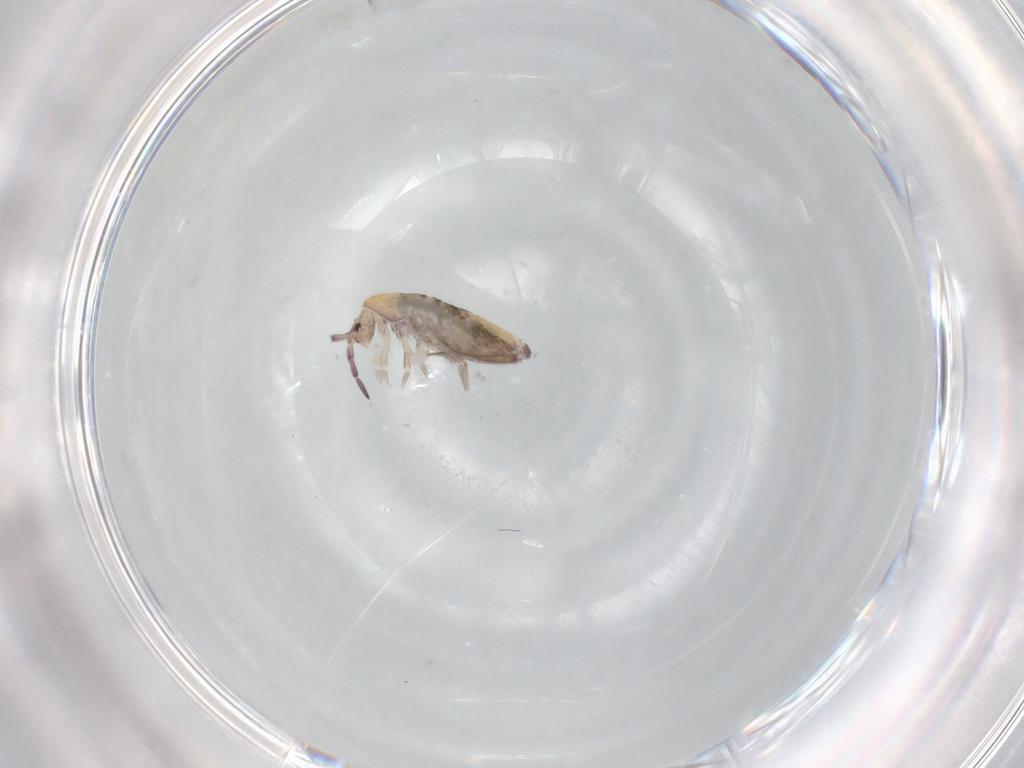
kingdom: Animalia
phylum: Arthropoda
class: Collembola
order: Entomobryomorpha
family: Entomobryidae
